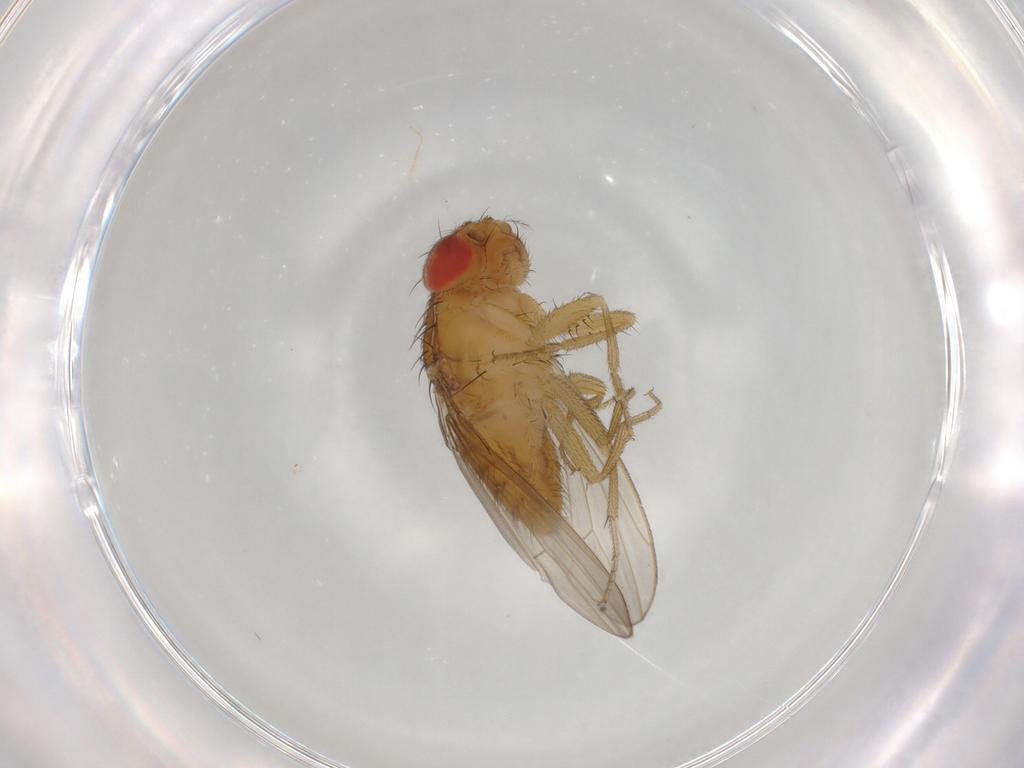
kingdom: Animalia
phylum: Arthropoda
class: Insecta
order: Diptera
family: Drosophilidae
